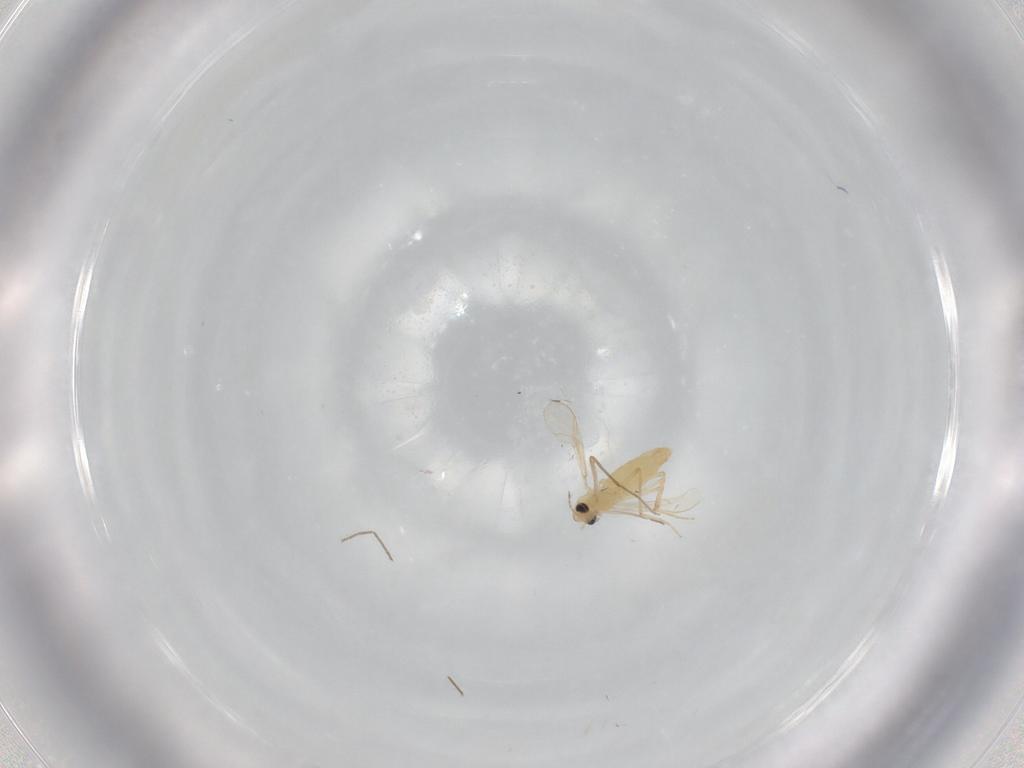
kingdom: Animalia
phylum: Arthropoda
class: Insecta
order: Diptera
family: Chironomidae
